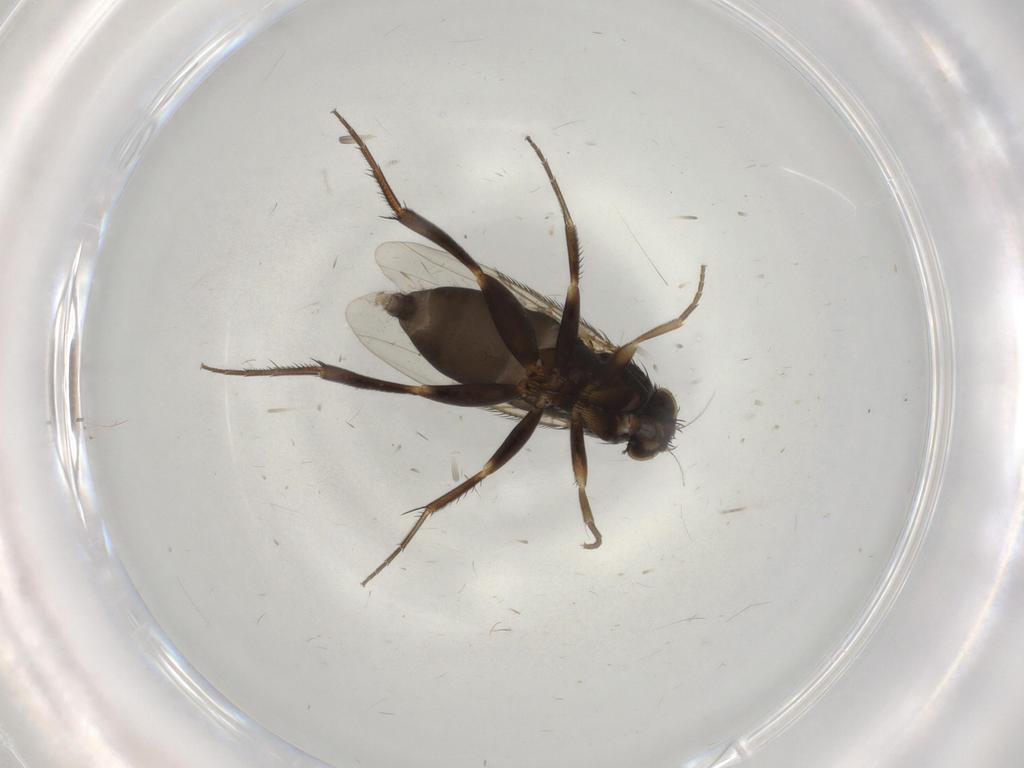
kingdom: Animalia
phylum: Arthropoda
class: Insecta
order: Diptera
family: Phoridae
